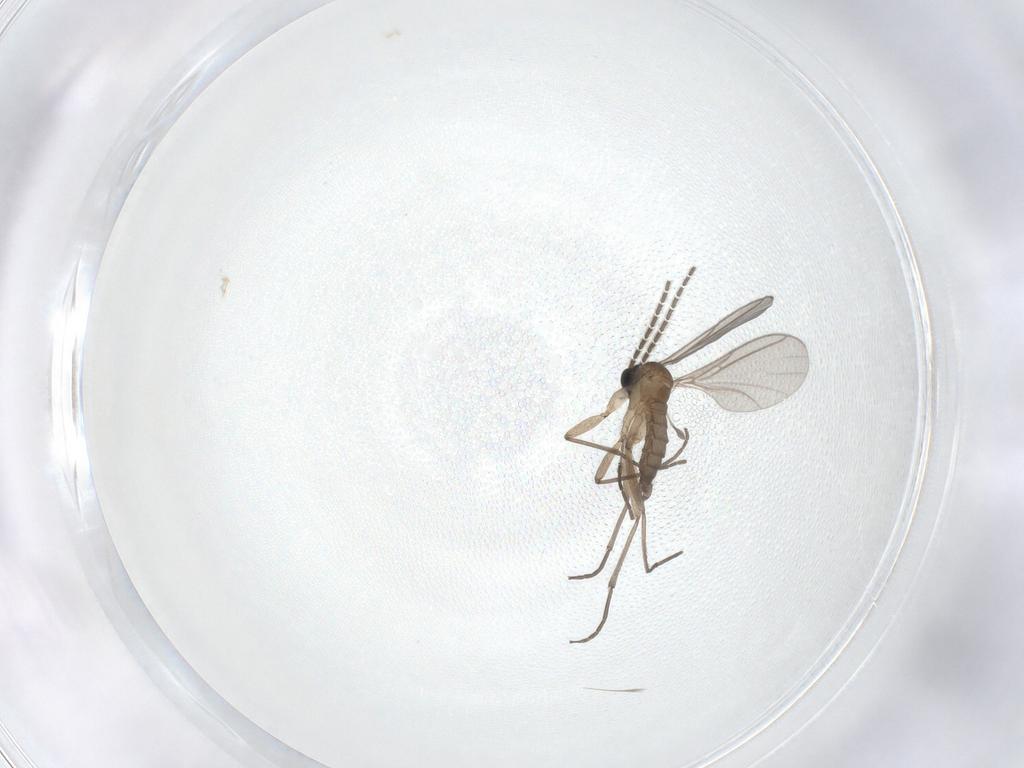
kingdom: Animalia
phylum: Arthropoda
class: Insecta
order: Diptera
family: Sciaridae
